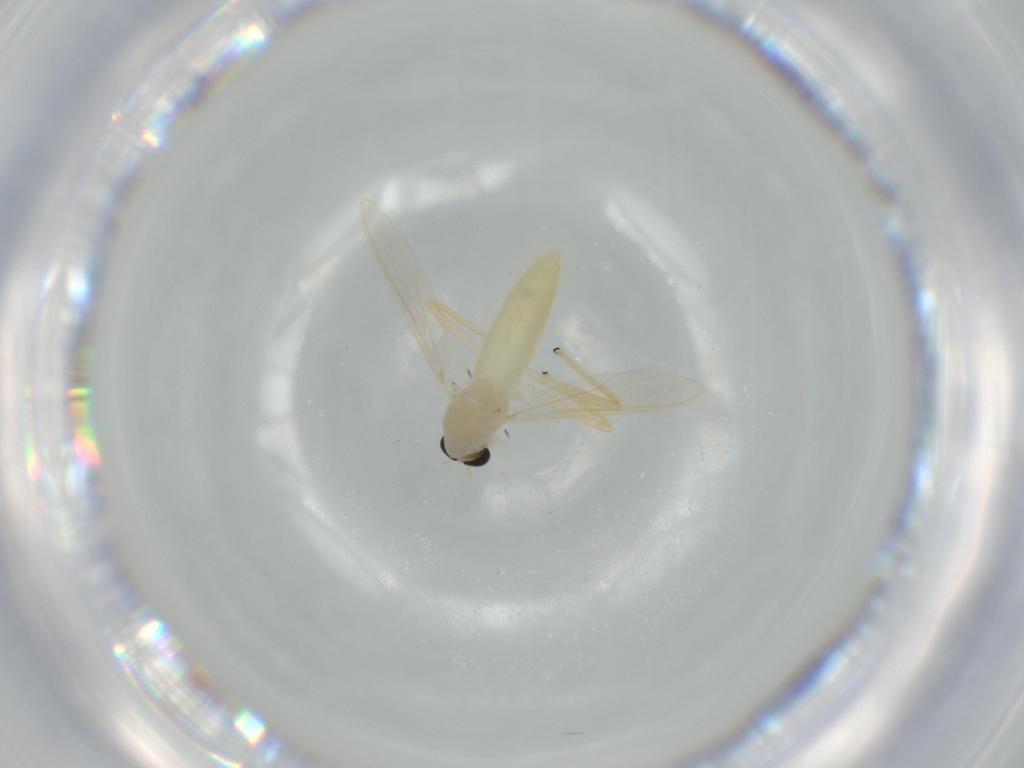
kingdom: Animalia
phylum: Arthropoda
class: Insecta
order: Diptera
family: Chironomidae
